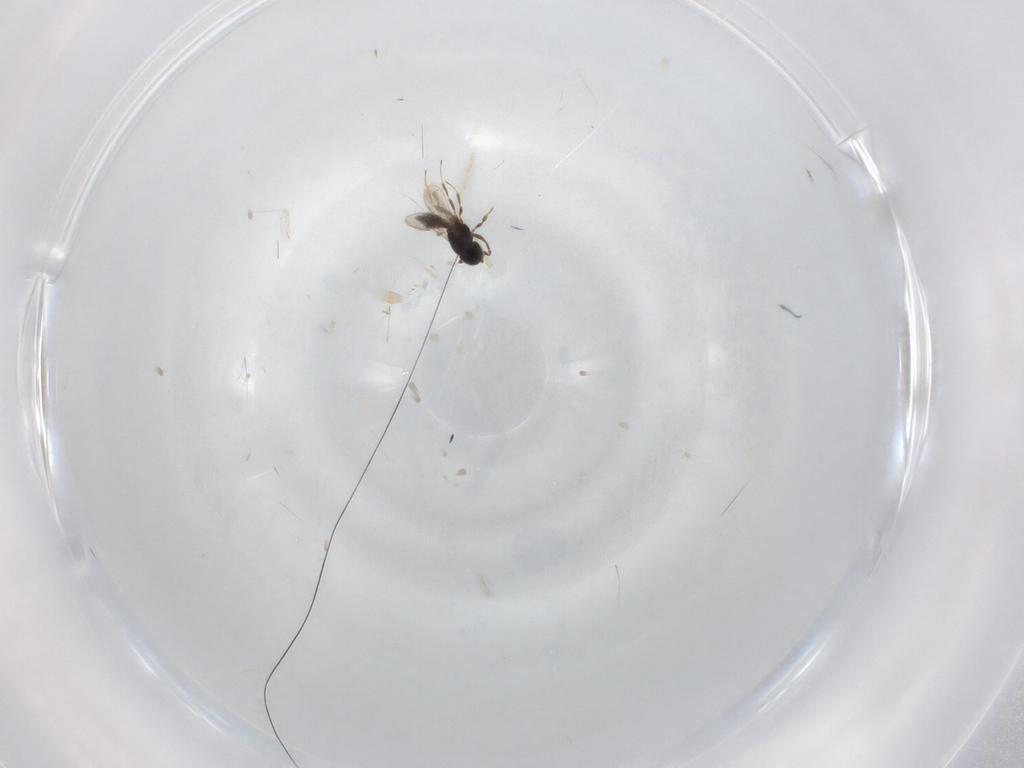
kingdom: Animalia
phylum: Arthropoda
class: Insecta
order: Hymenoptera
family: Scelionidae
